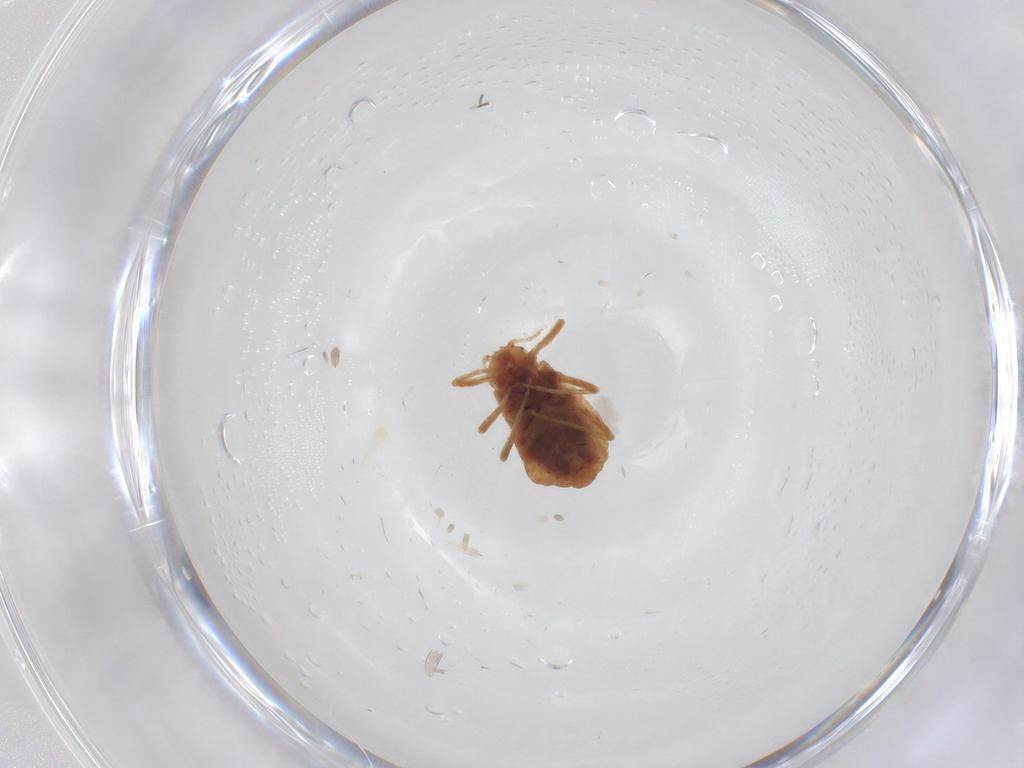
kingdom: Animalia
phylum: Arthropoda
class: Insecta
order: Hemiptera
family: Aphididae
